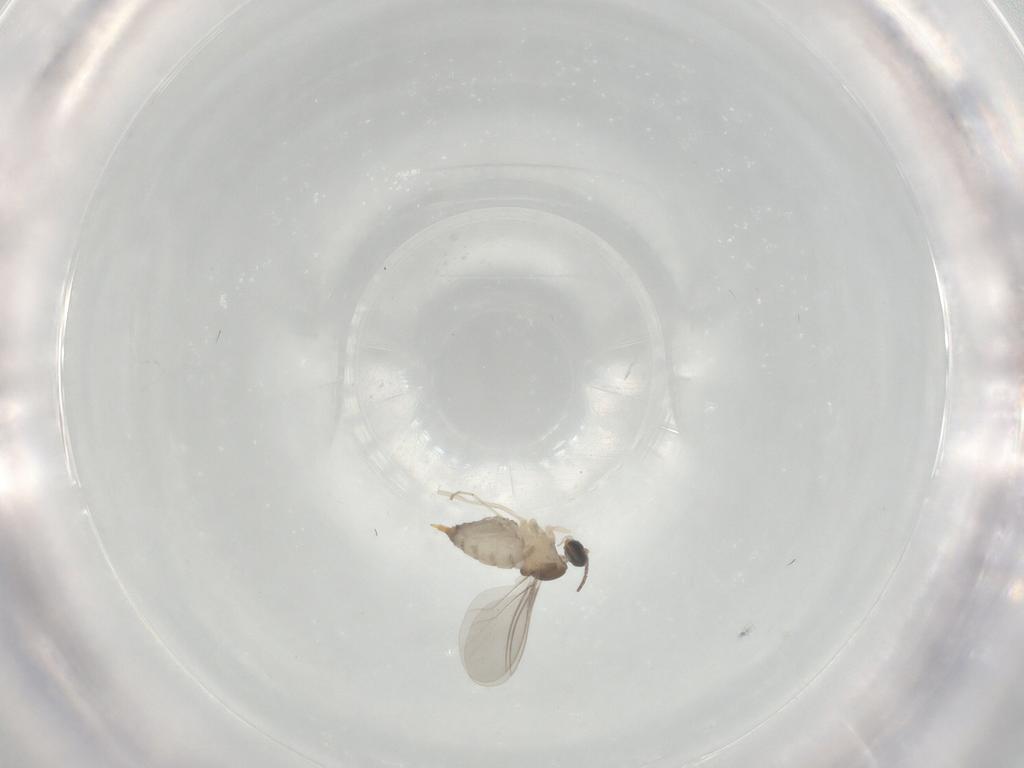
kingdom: Animalia
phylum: Arthropoda
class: Insecta
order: Diptera
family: Cecidomyiidae
